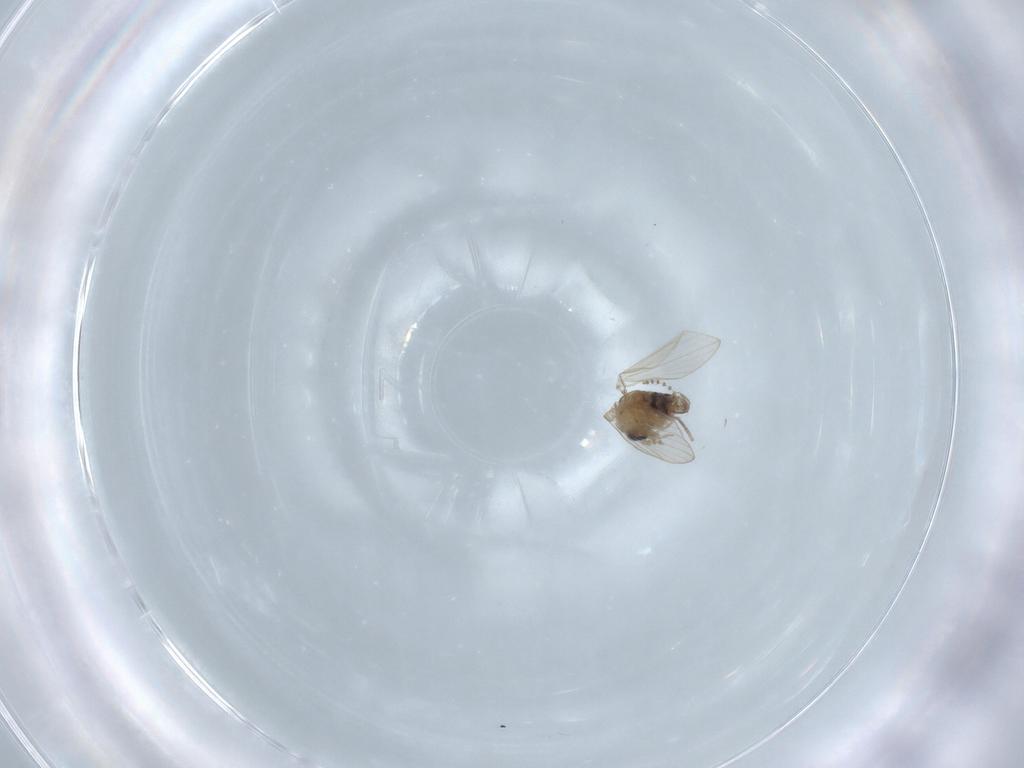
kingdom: Animalia
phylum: Arthropoda
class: Insecta
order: Diptera
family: Psychodidae
